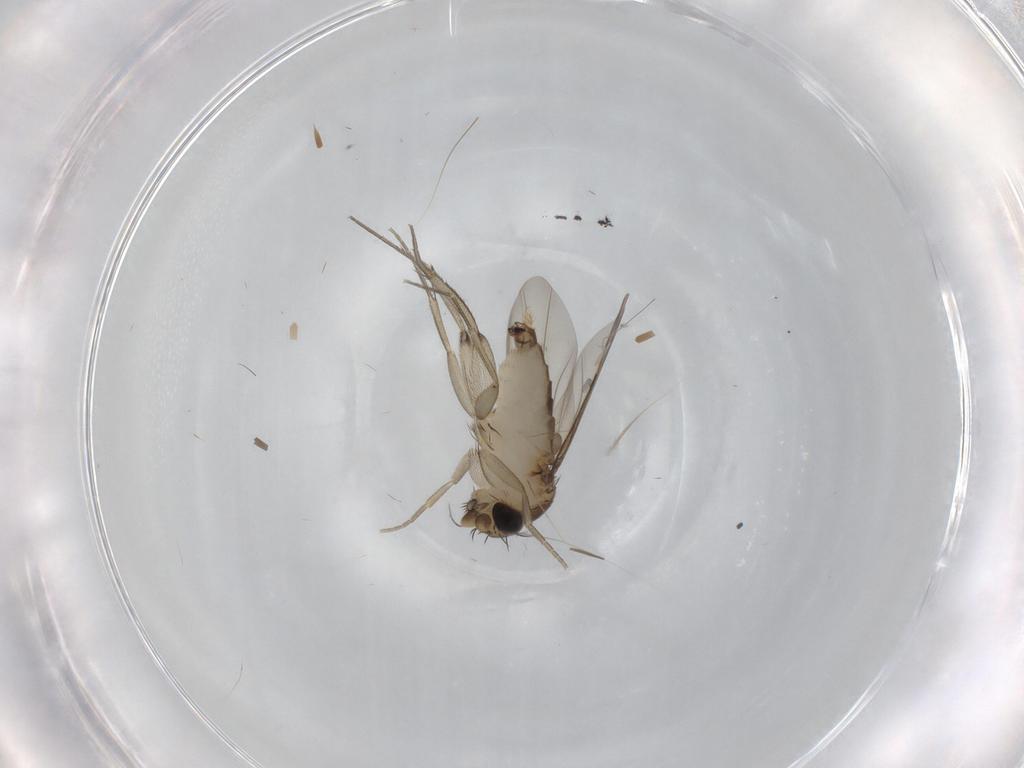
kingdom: Animalia
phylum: Arthropoda
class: Insecta
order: Diptera
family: Phoridae
